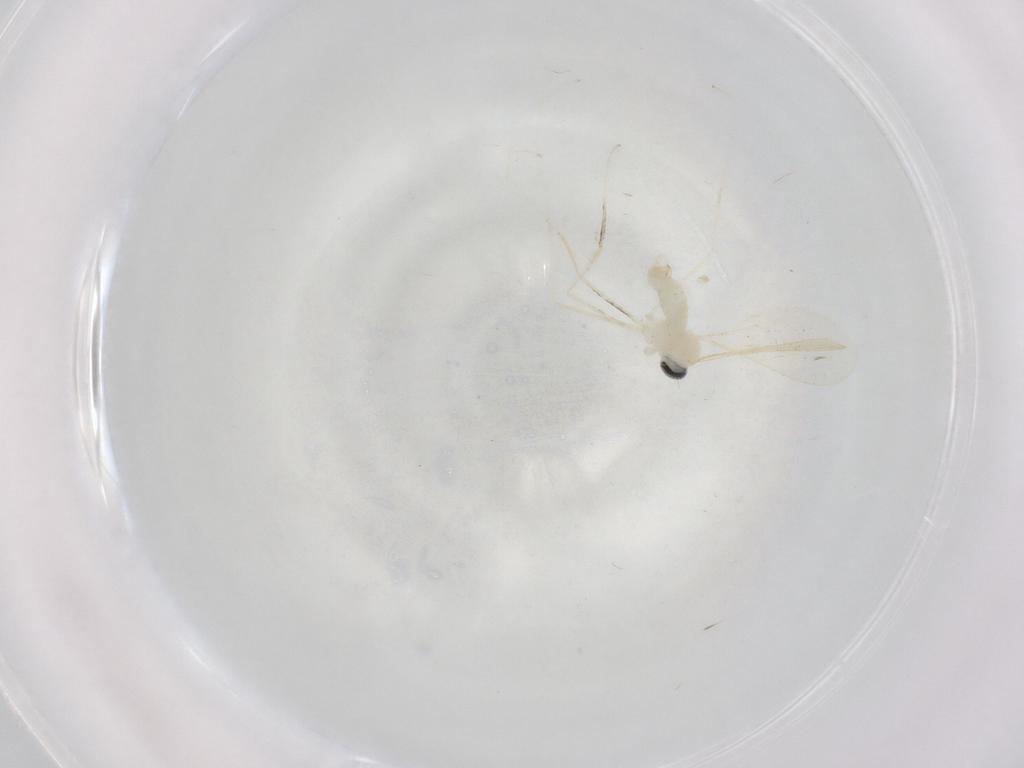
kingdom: Animalia
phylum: Arthropoda
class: Insecta
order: Diptera
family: Cecidomyiidae
